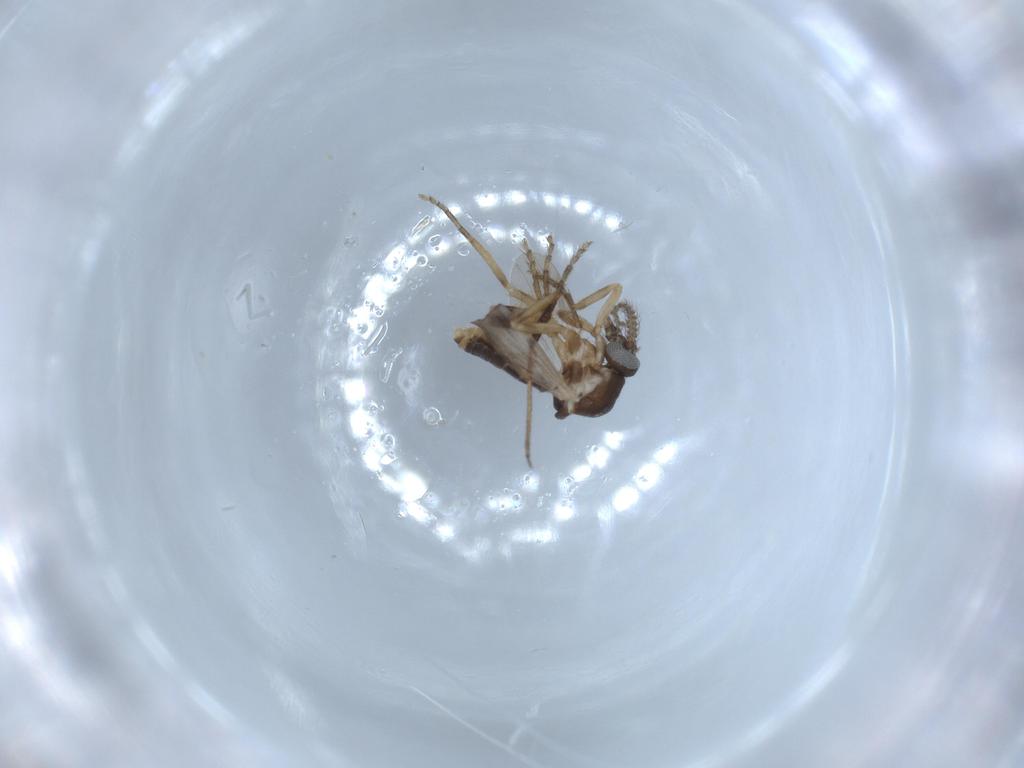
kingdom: Animalia
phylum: Arthropoda
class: Insecta
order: Diptera
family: Ceratopogonidae
